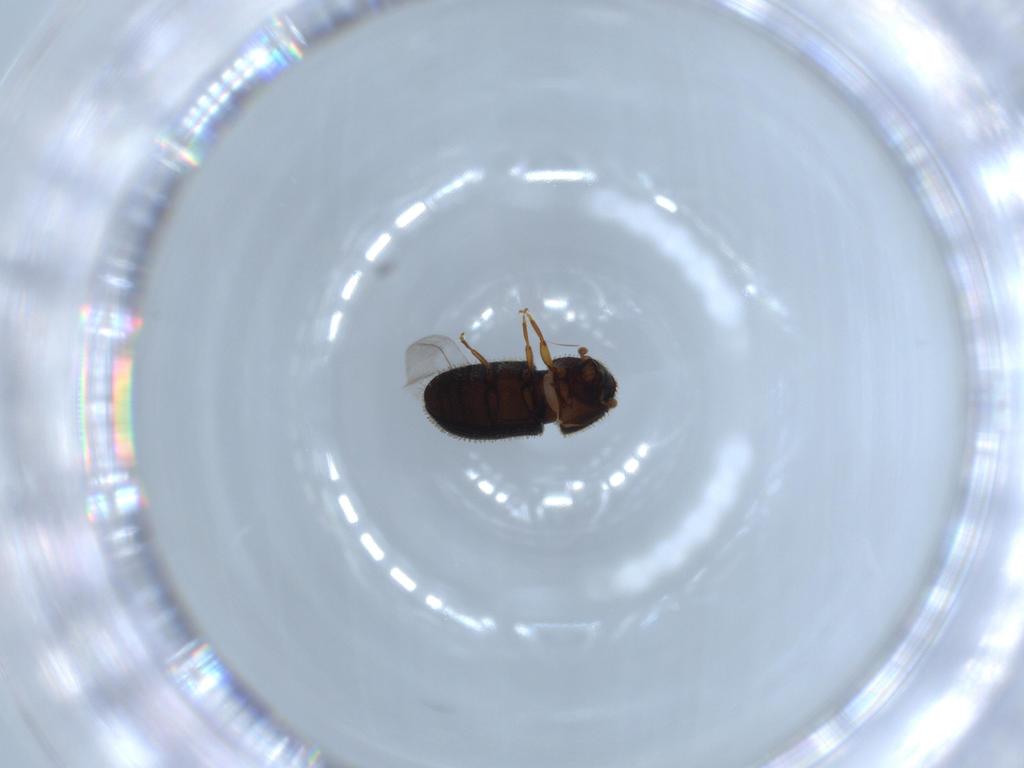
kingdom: Animalia
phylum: Arthropoda
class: Insecta
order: Coleoptera
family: Curculionidae
